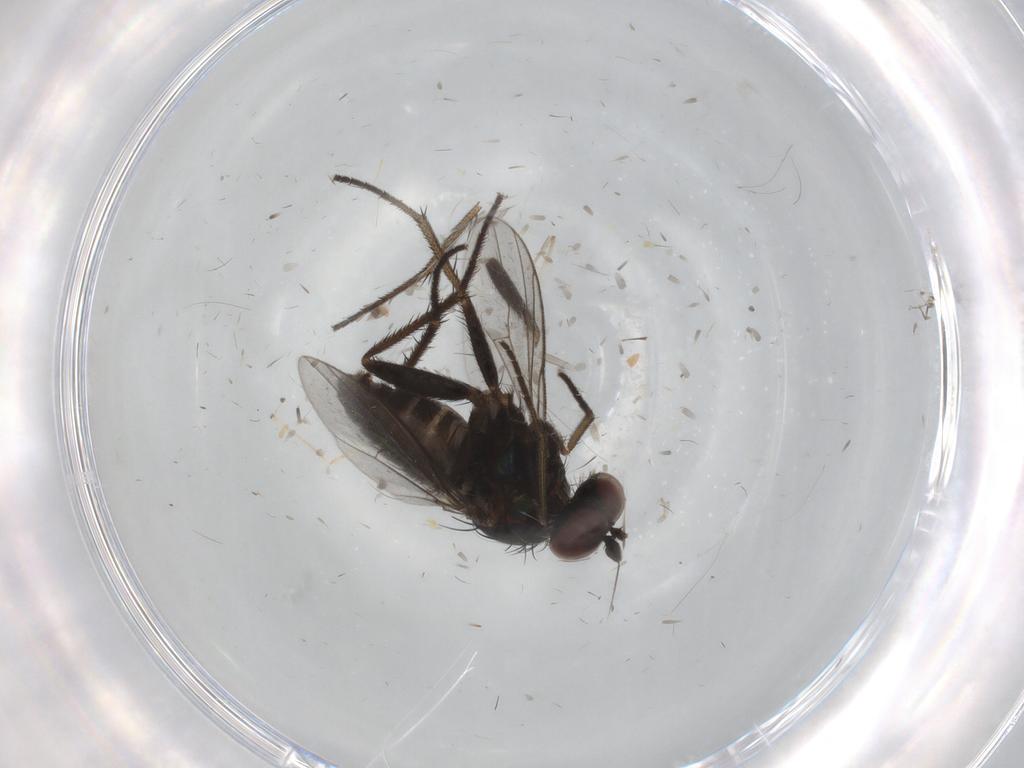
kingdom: Animalia
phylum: Arthropoda
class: Insecta
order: Diptera
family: Dolichopodidae
